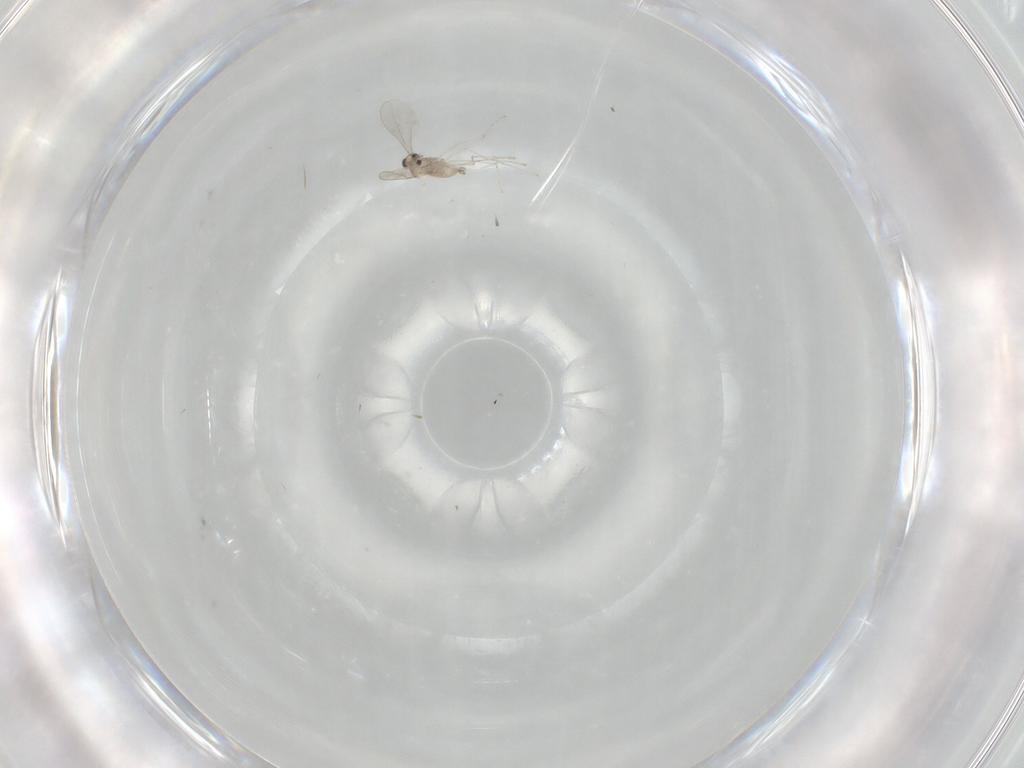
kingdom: Animalia
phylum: Arthropoda
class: Insecta
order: Diptera
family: Cecidomyiidae
